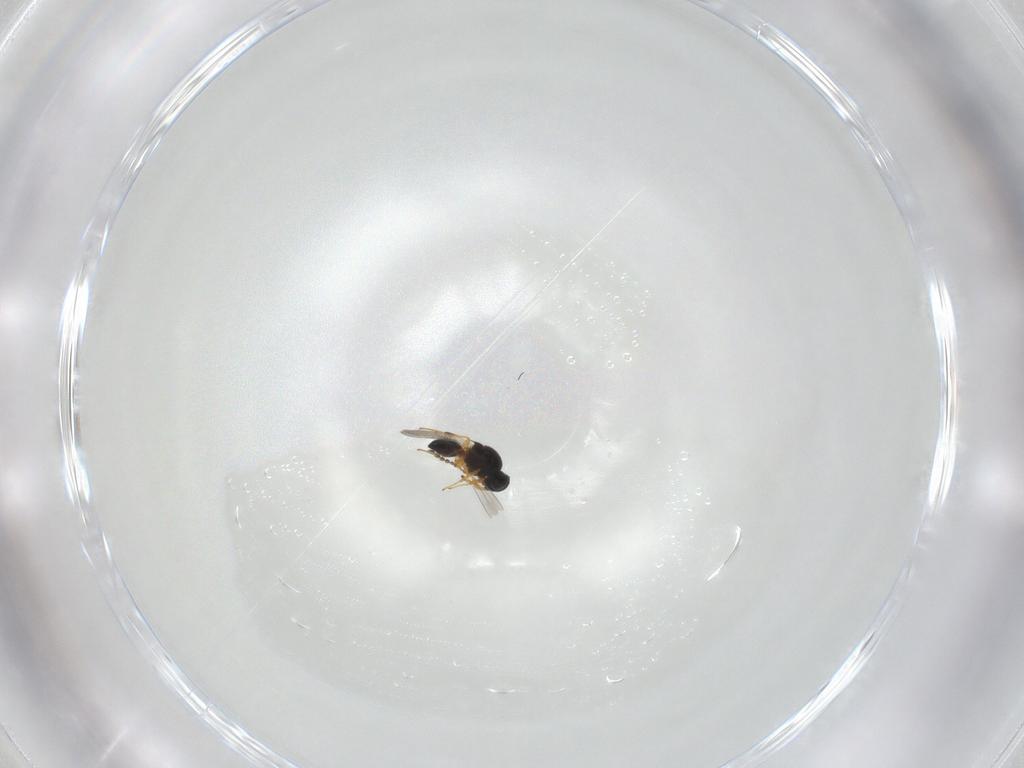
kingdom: Animalia
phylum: Arthropoda
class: Insecta
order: Hymenoptera
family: Platygastridae
